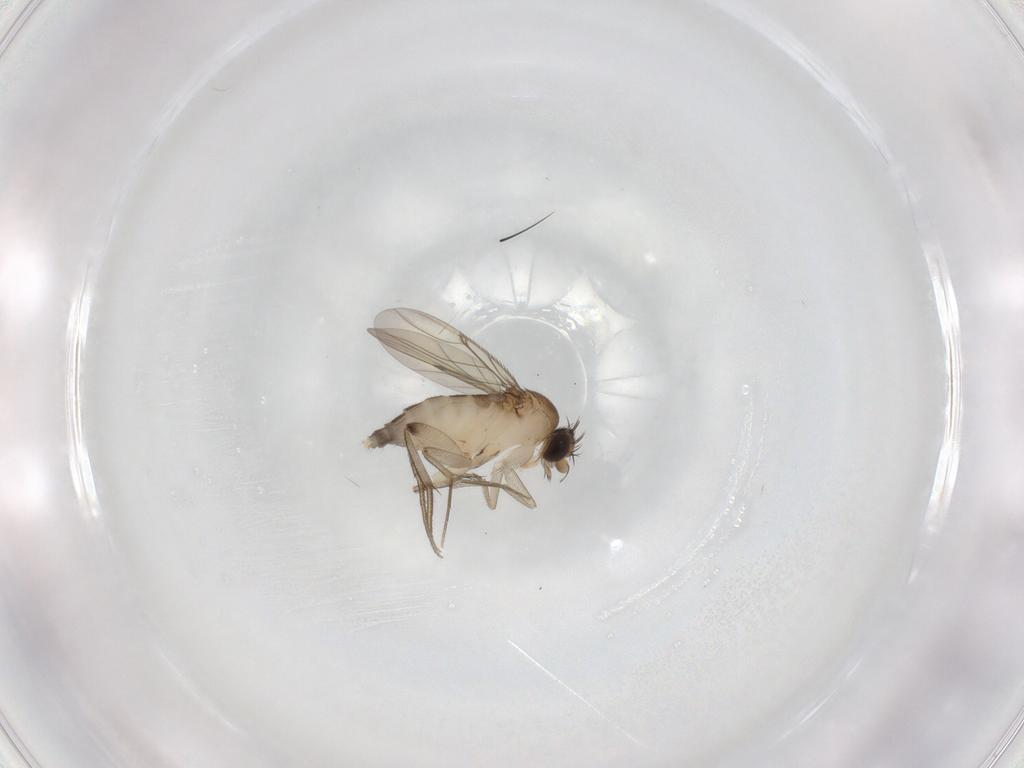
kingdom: Animalia
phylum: Arthropoda
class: Insecta
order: Diptera
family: Phoridae
